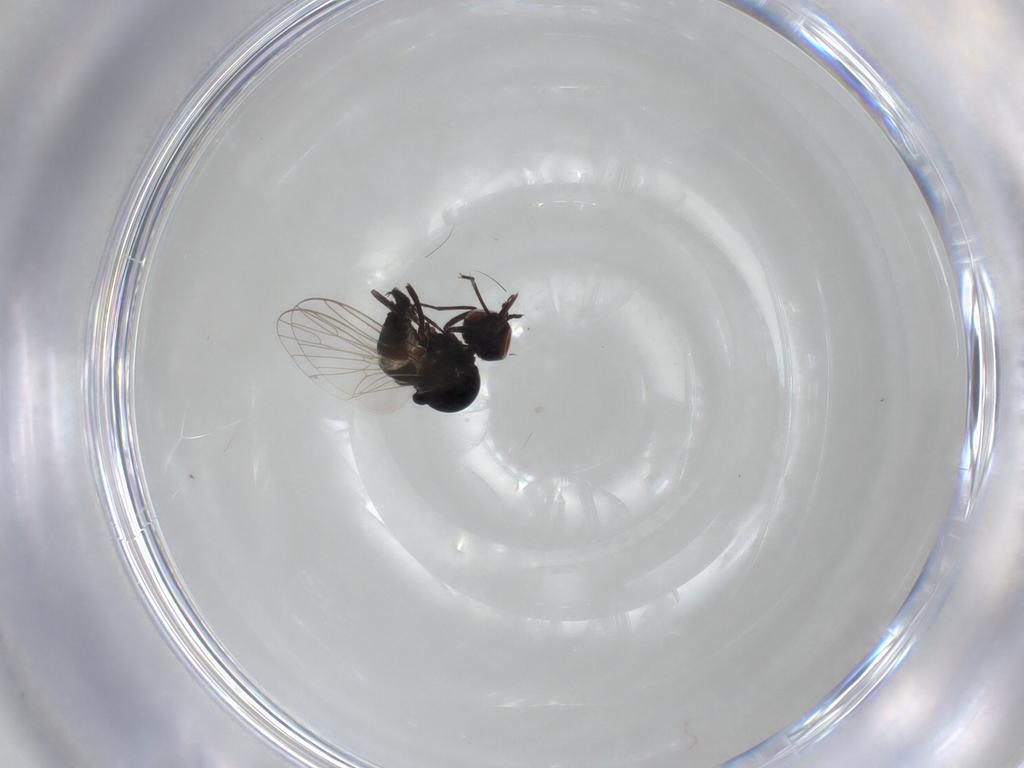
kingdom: Animalia
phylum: Arthropoda
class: Insecta
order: Diptera
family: Bombyliidae
